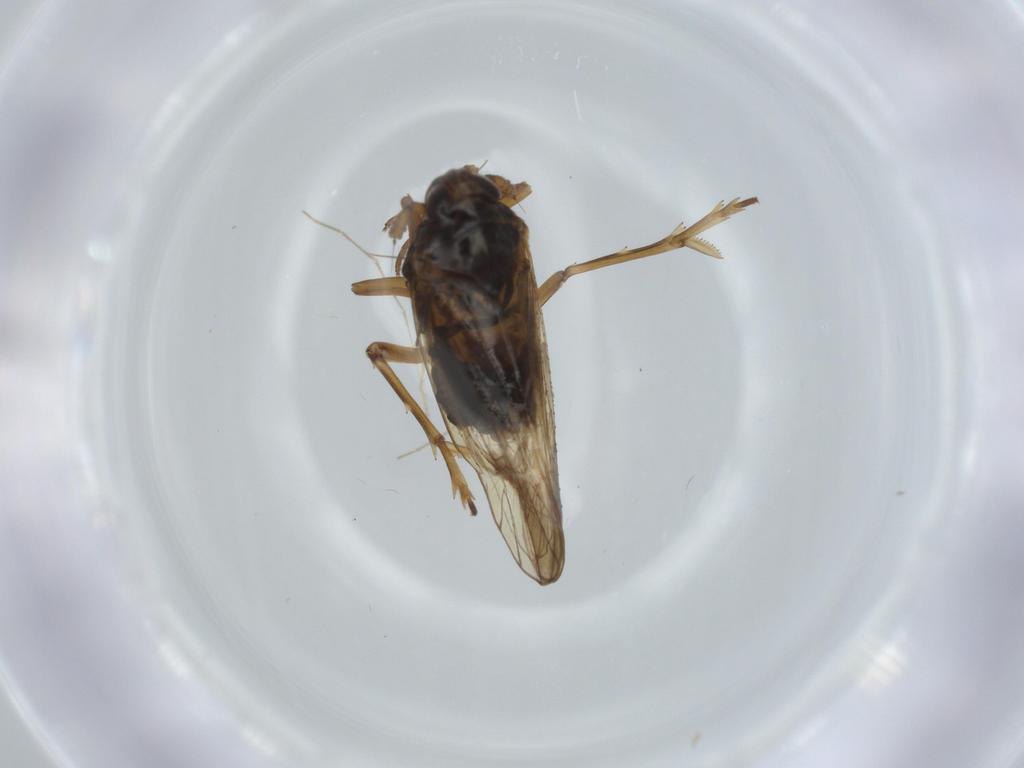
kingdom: Animalia
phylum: Arthropoda
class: Insecta
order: Hemiptera
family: Delphacidae
